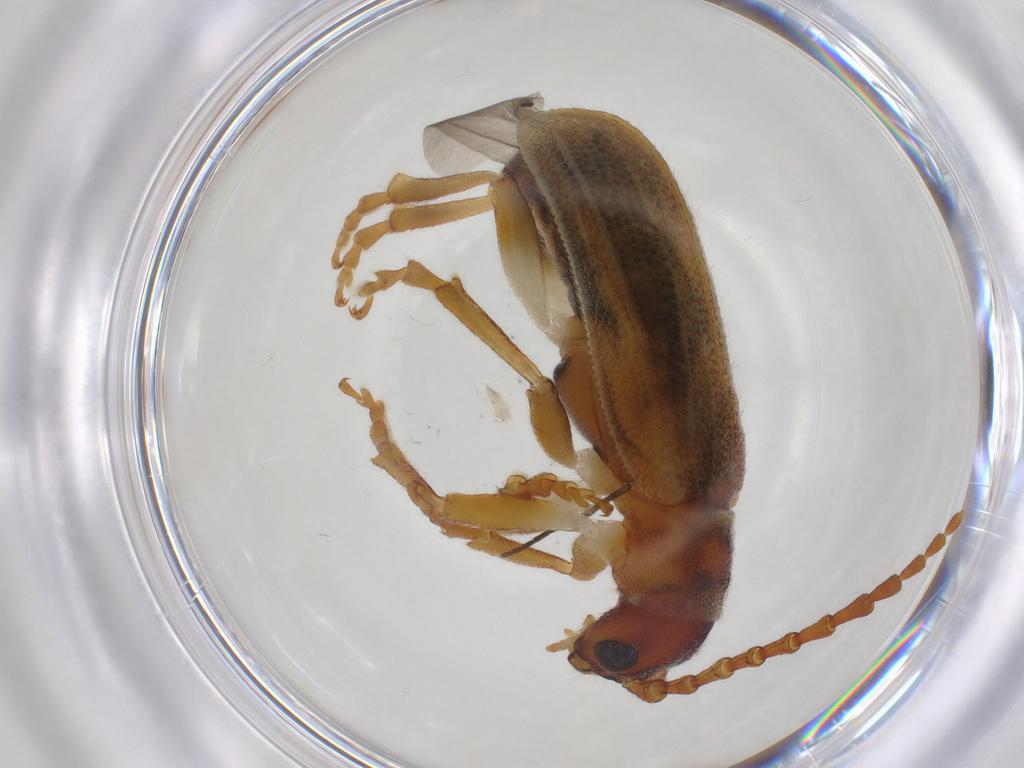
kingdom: Animalia
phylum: Arthropoda
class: Insecta
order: Coleoptera
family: Chrysomelidae
